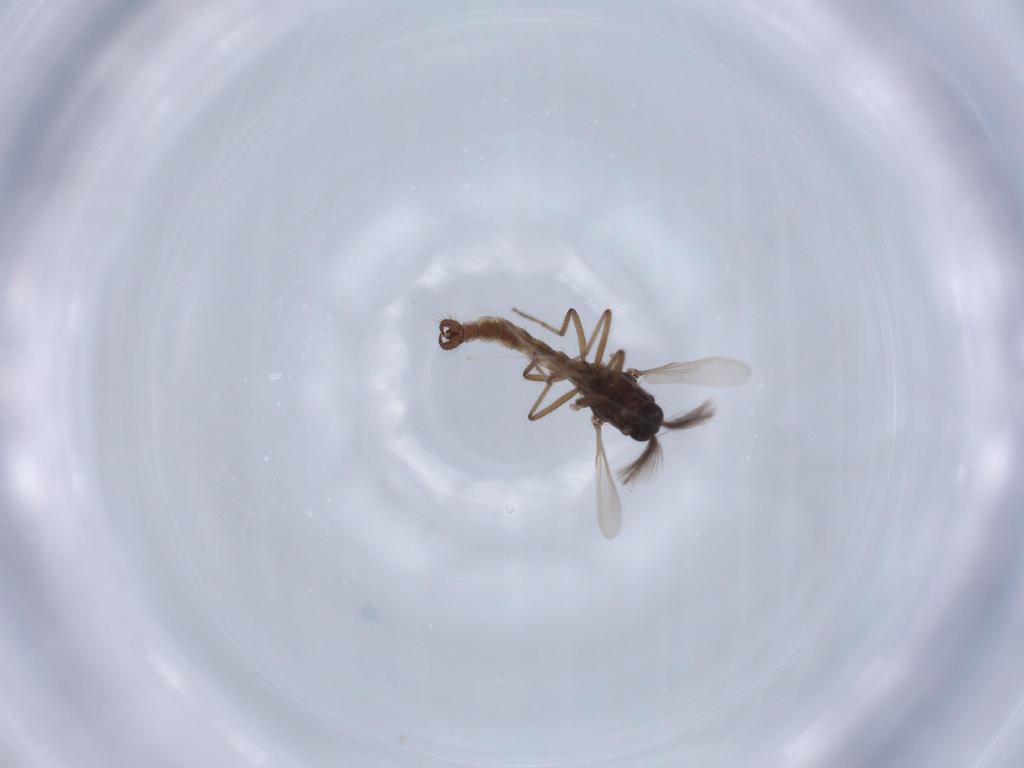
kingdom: Animalia
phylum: Arthropoda
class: Insecta
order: Diptera
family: Ceratopogonidae
